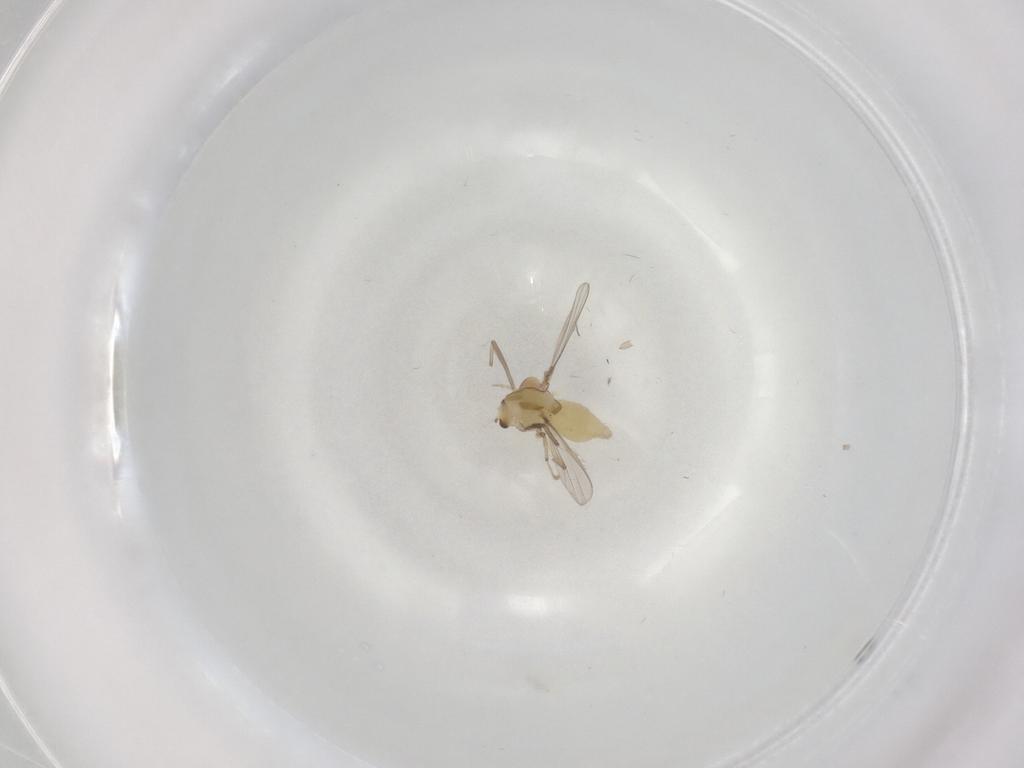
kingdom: Animalia
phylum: Arthropoda
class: Insecta
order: Diptera
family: Chironomidae
